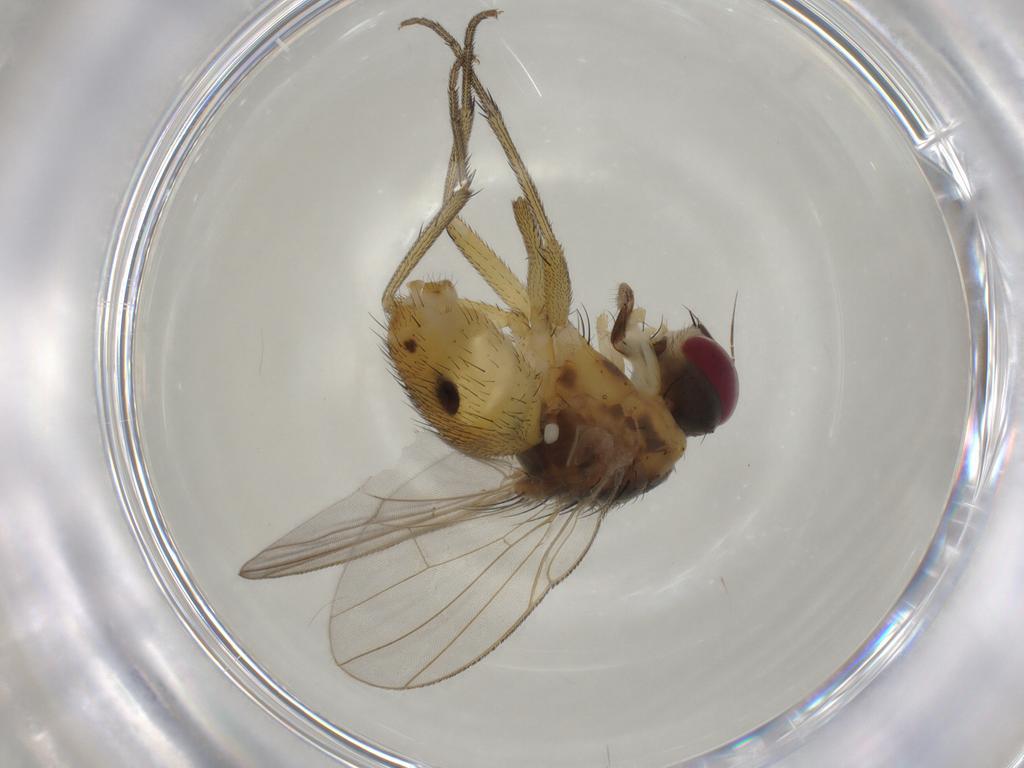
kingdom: Animalia
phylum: Arthropoda
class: Insecta
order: Diptera
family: Muscidae
